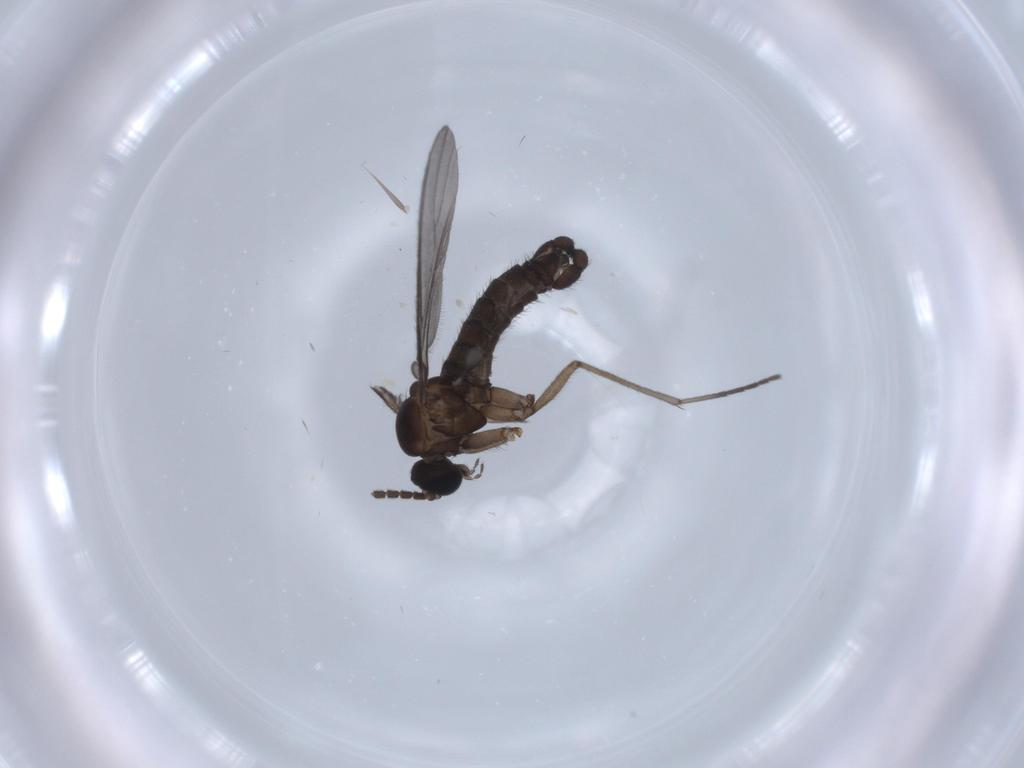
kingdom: Animalia
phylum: Arthropoda
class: Insecta
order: Diptera
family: Sciaridae
